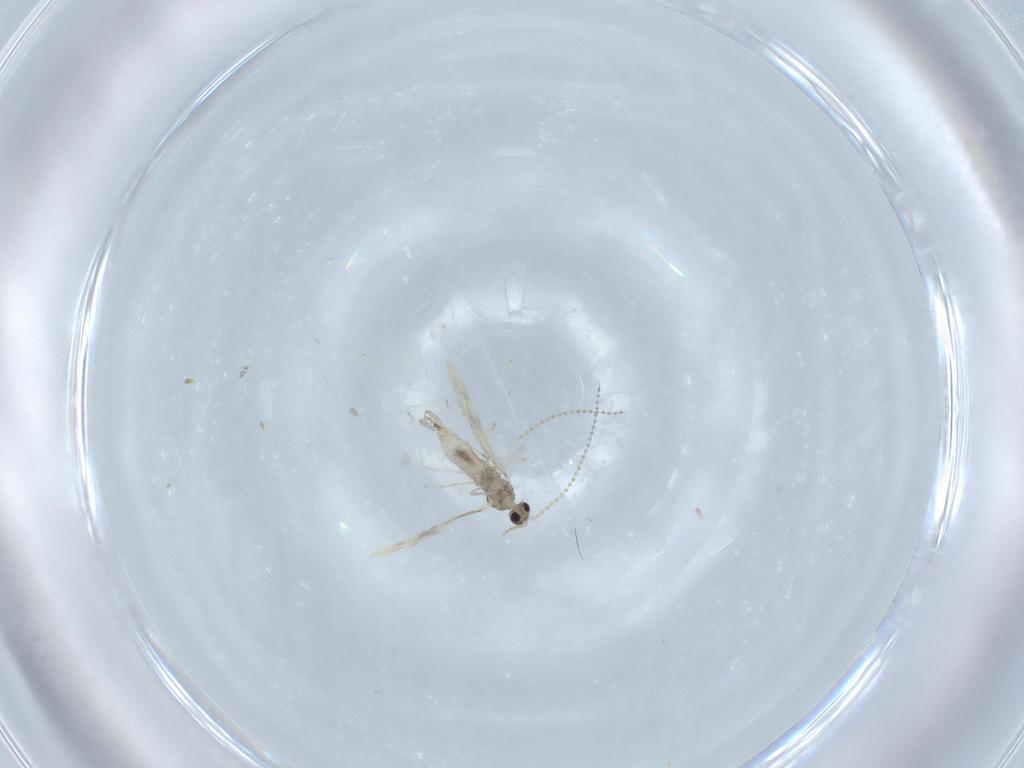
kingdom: Animalia
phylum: Arthropoda
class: Insecta
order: Diptera
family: Cecidomyiidae
